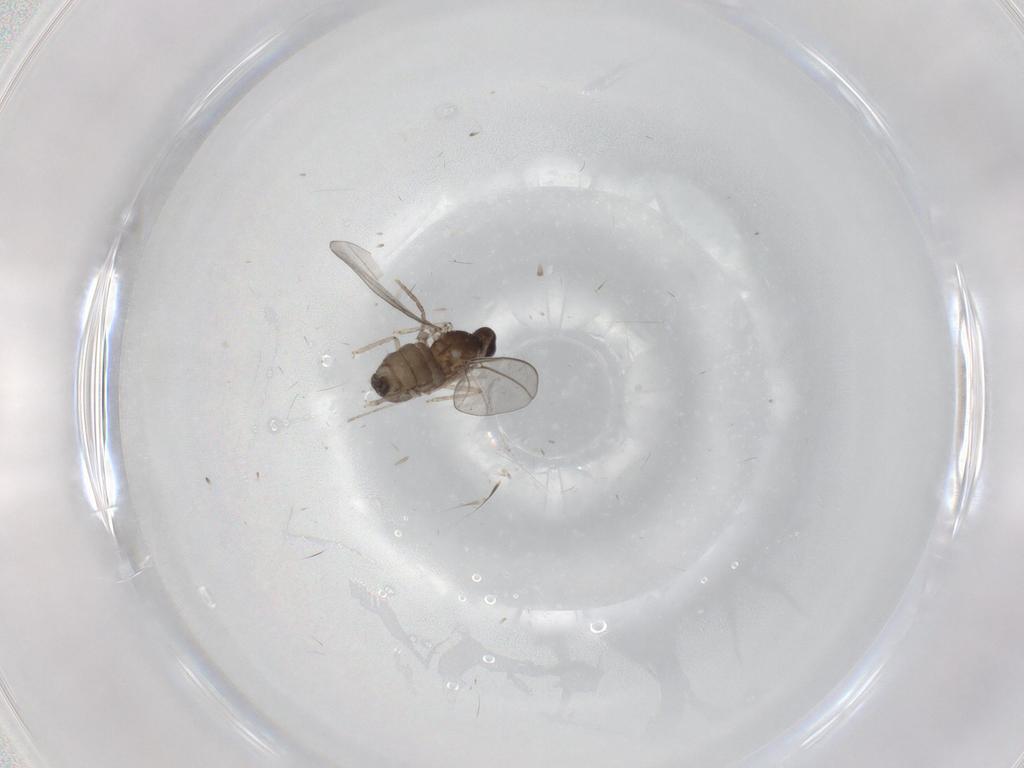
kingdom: Animalia
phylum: Arthropoda
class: Insecta
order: Diptera
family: Cecidomyiidae
